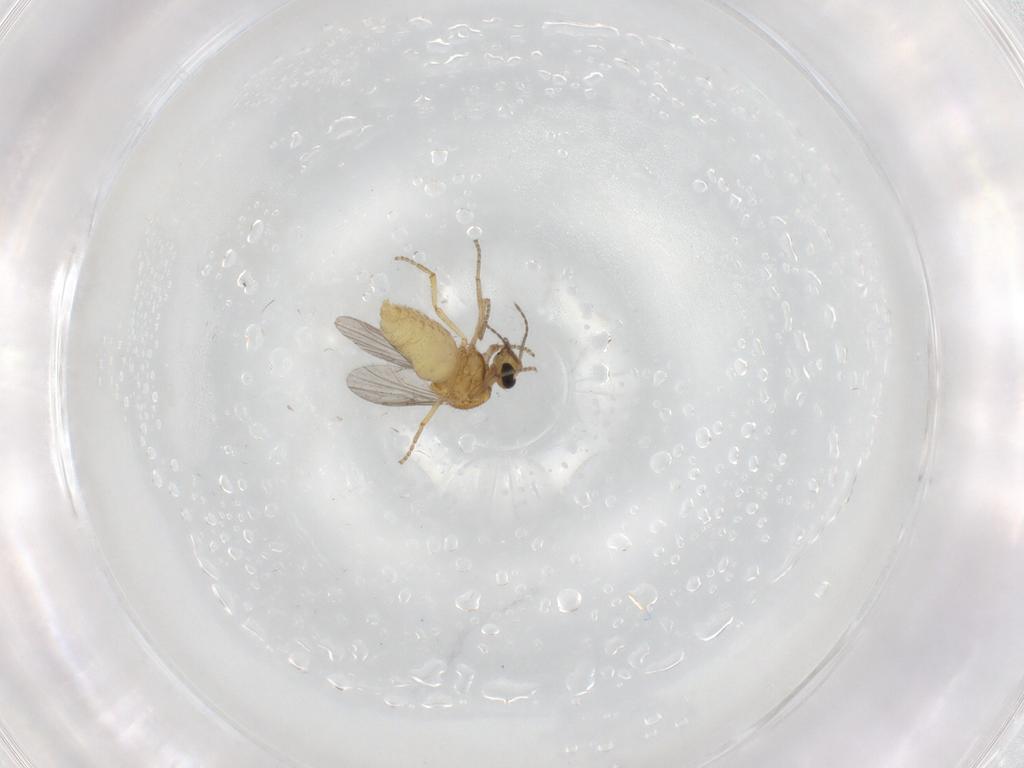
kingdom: Animalia
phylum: Arthropoda
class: Insecta
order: Diptera
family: Ceratopogonidae
